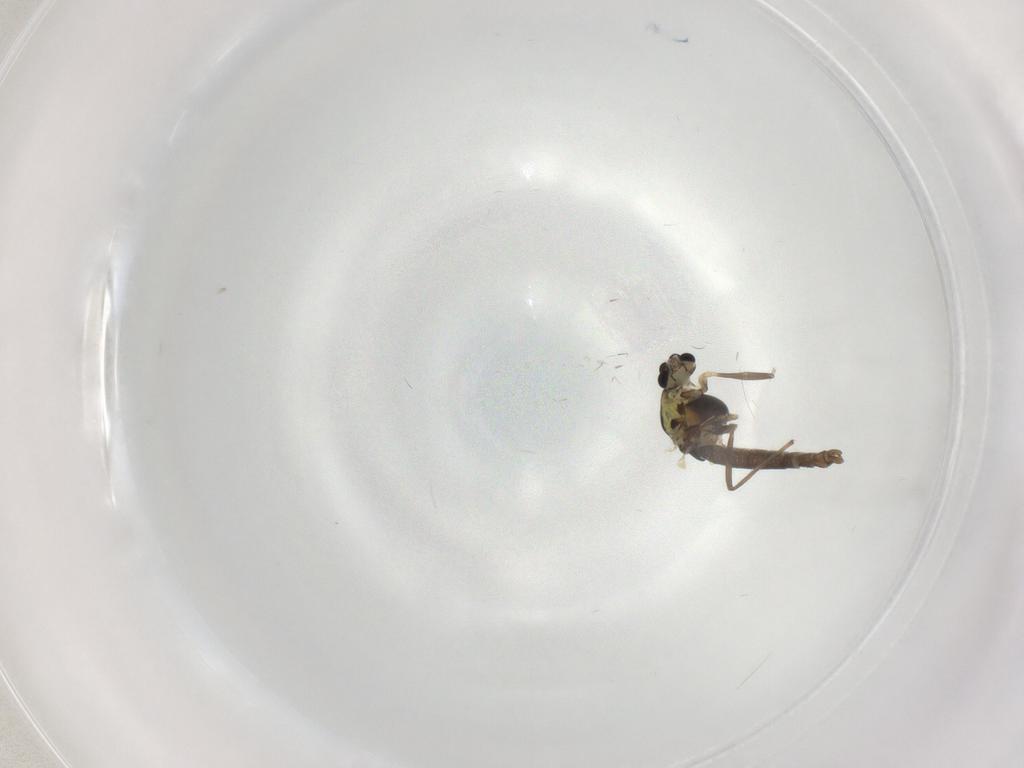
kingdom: Animalia
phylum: Arthropoda
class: Insecta
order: Diptera
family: Chironomidae
